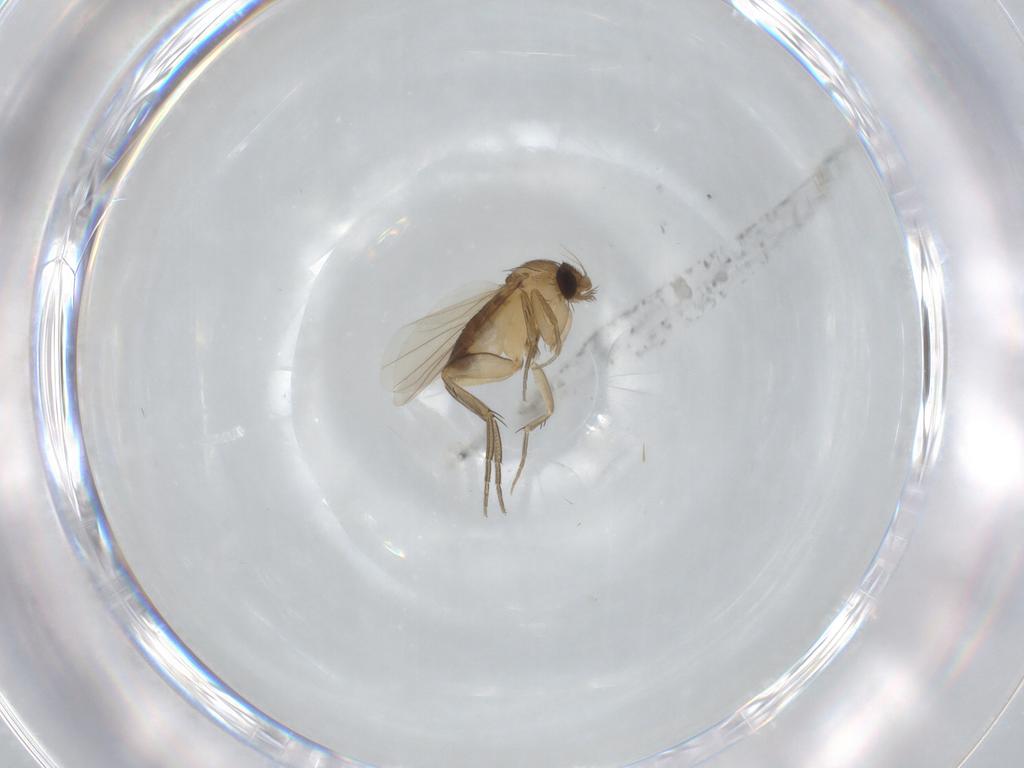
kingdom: Animalia
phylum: Arthropoda
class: Insecta
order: Diptera
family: Phoridae
